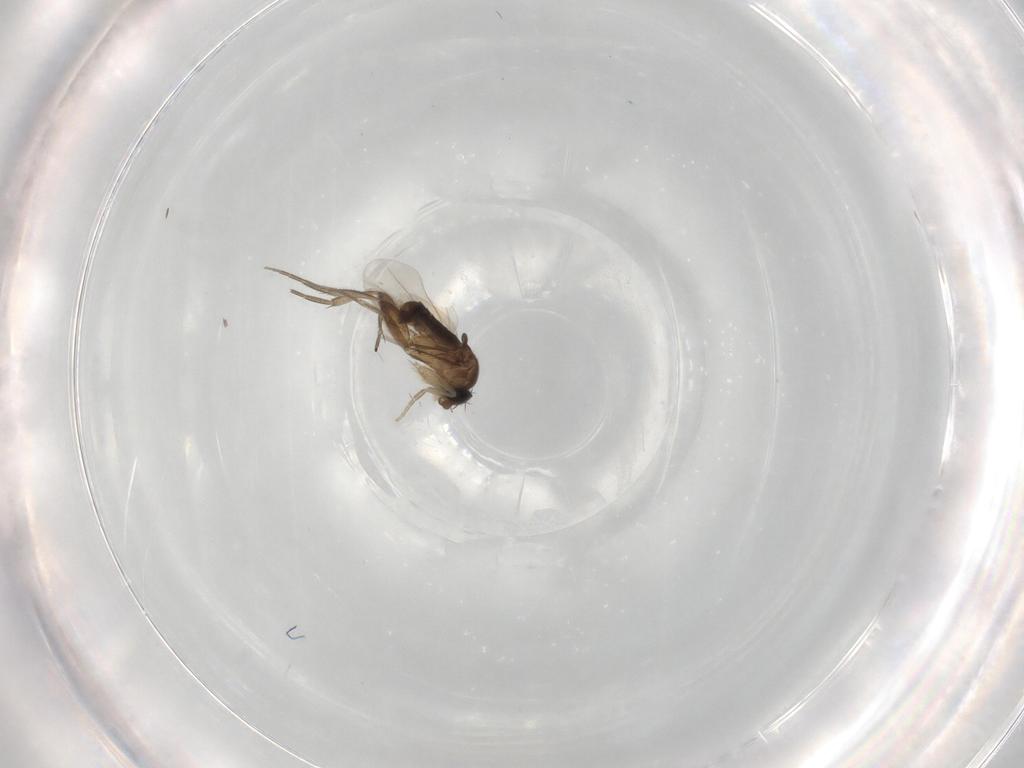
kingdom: Animalia
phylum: Arthropoda
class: Insecta
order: Diptera
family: Phoridae
